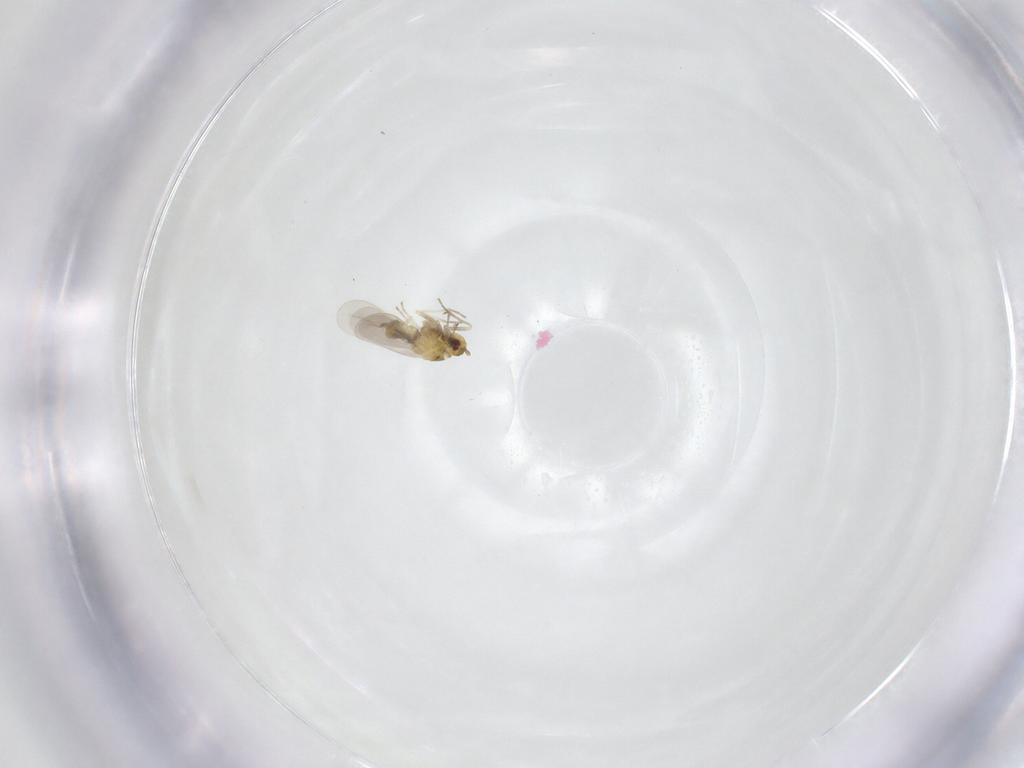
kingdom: Animalia
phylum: Arthropoda
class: Insecta
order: Hemiptera
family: Aleyrodidae
